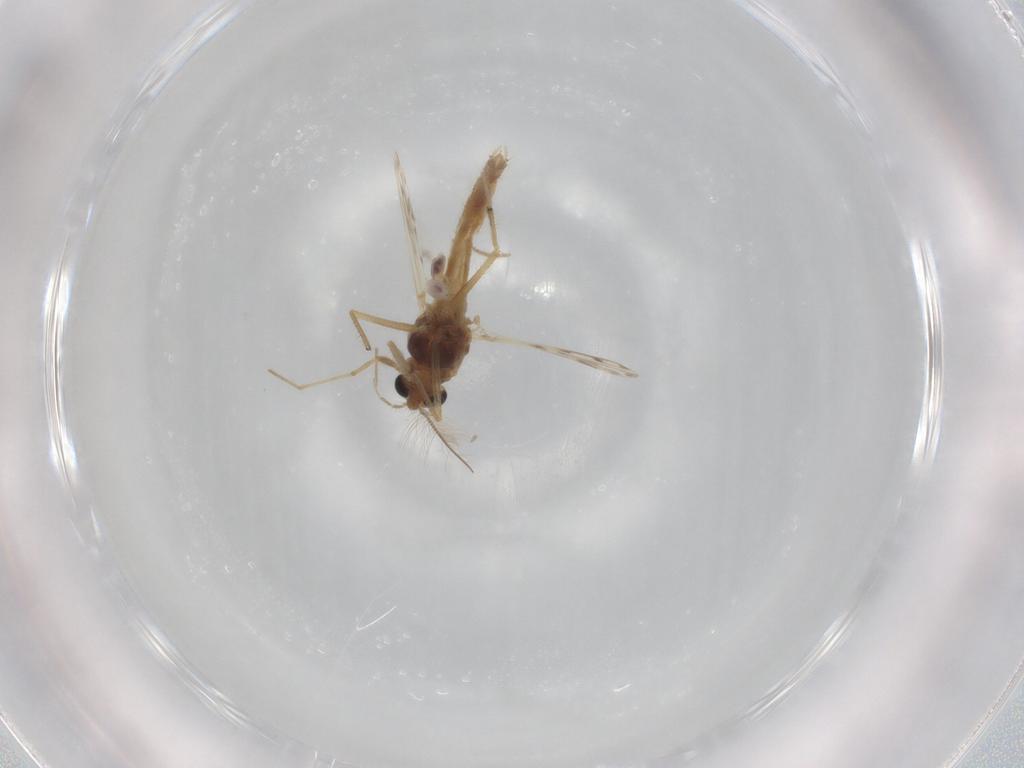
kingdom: Animalia
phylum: Arthropoda
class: Insecta
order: Diptera
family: Chironomidae
